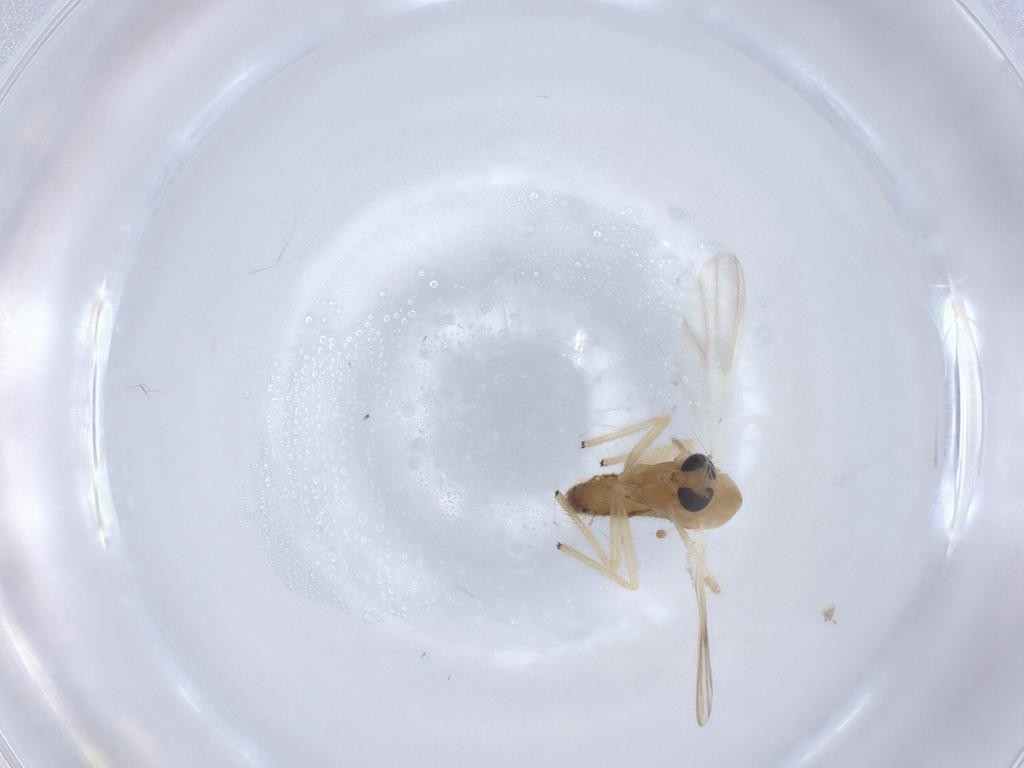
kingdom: Animalia
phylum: Arthropoda
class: Insecta
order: Diptera
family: Chironomidae
